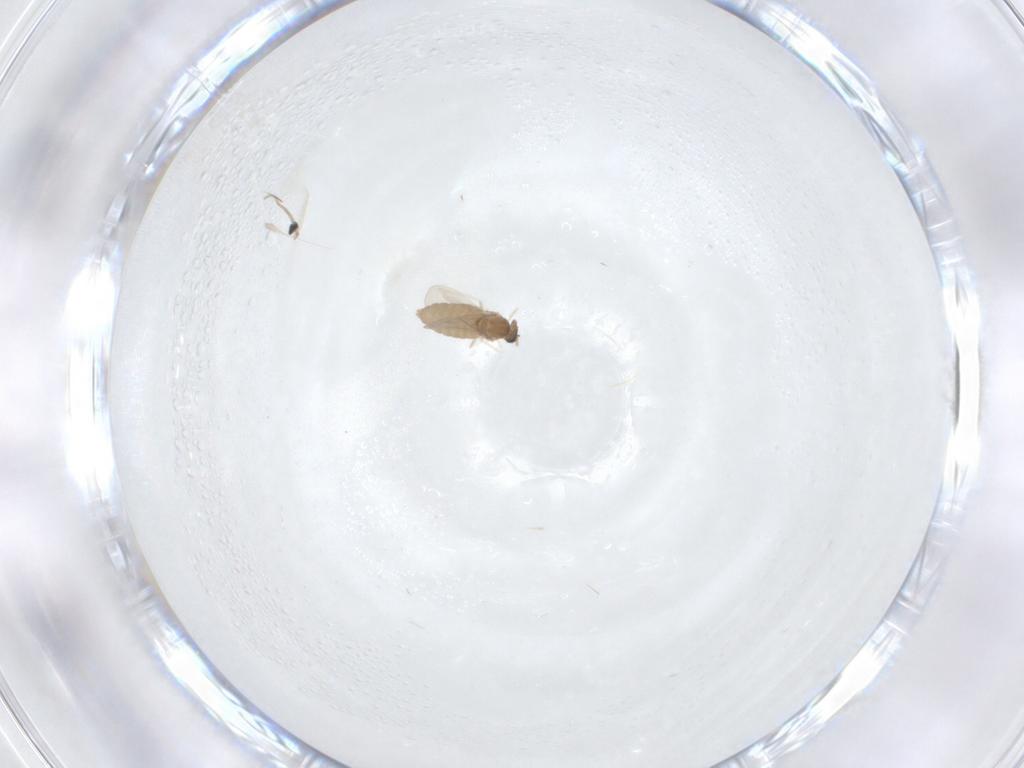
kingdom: Animalia
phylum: Arthropoda
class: Insecta
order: Diptera
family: Cecidomyiidae
